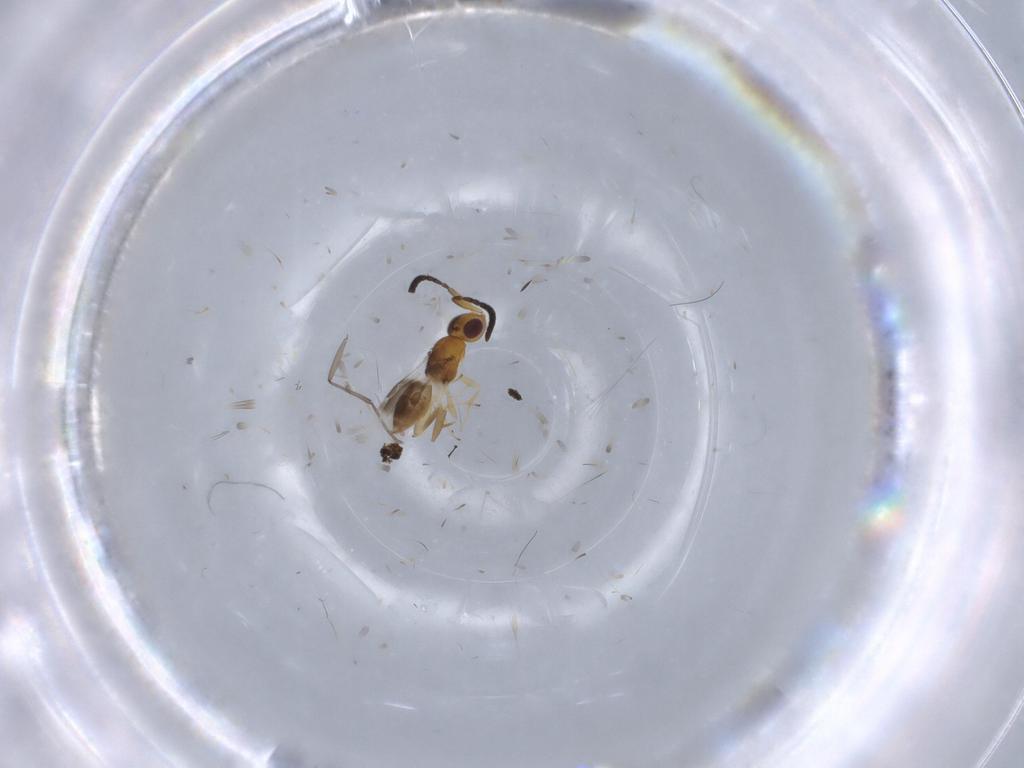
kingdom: Animalia
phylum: Arthropoda
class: Insecta
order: Hymenoptera
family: Megaspilidae
